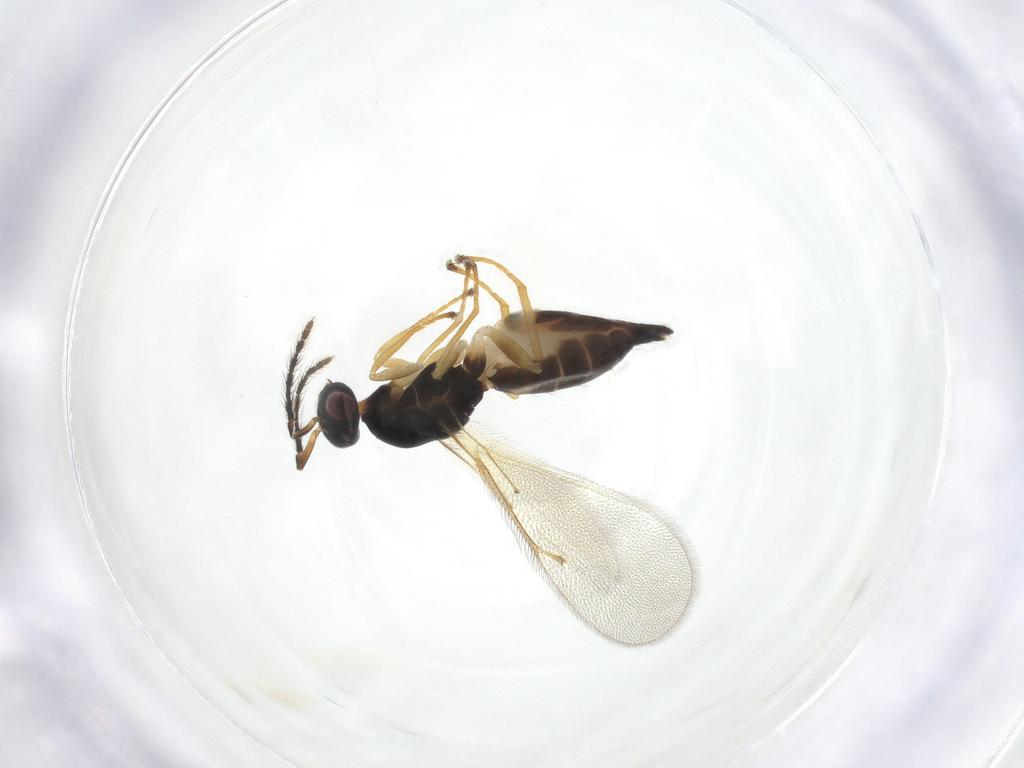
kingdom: Animalia
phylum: Arthropoda
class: Insecta
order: Hymenoptera
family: Eulophidae
